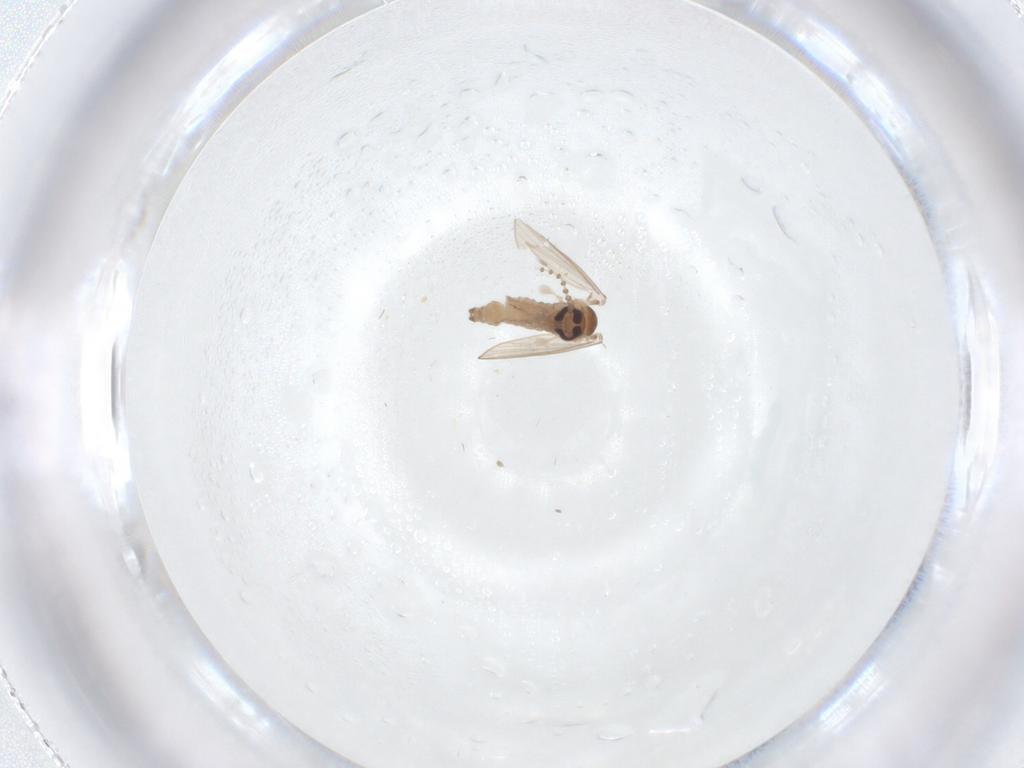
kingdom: Animalia
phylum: Arthropoda
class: Insecta
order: Diptera
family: Psychodidae
